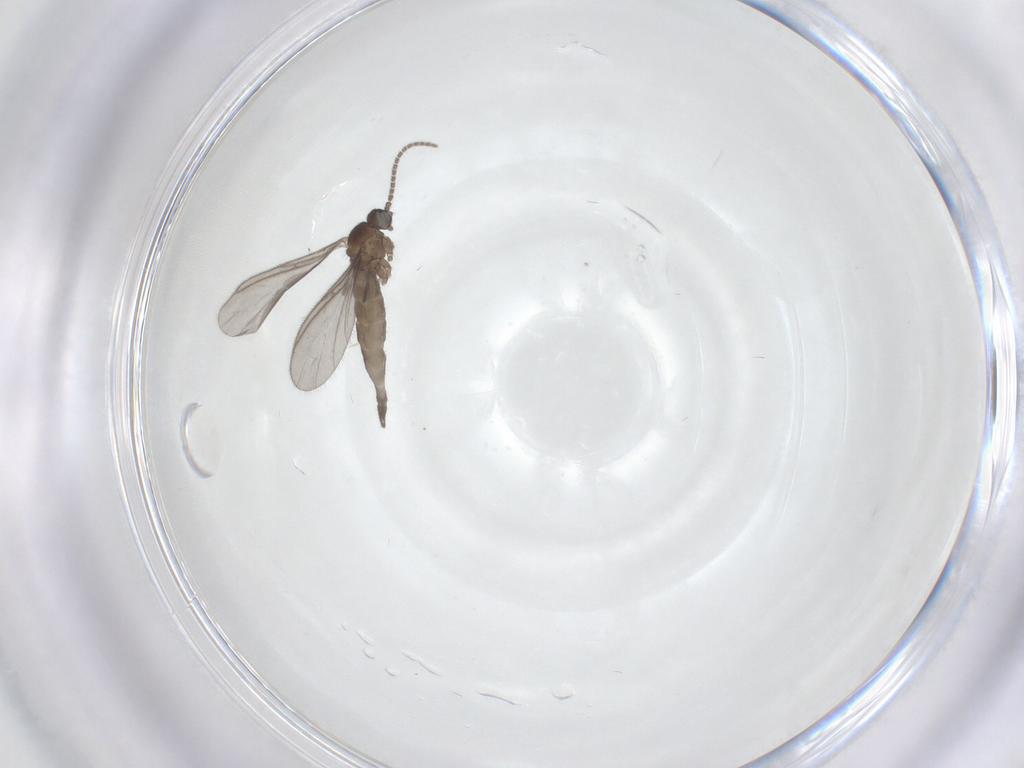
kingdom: Animalia
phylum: Arthropoda
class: Insecta
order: Diptera
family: Sciaridae
